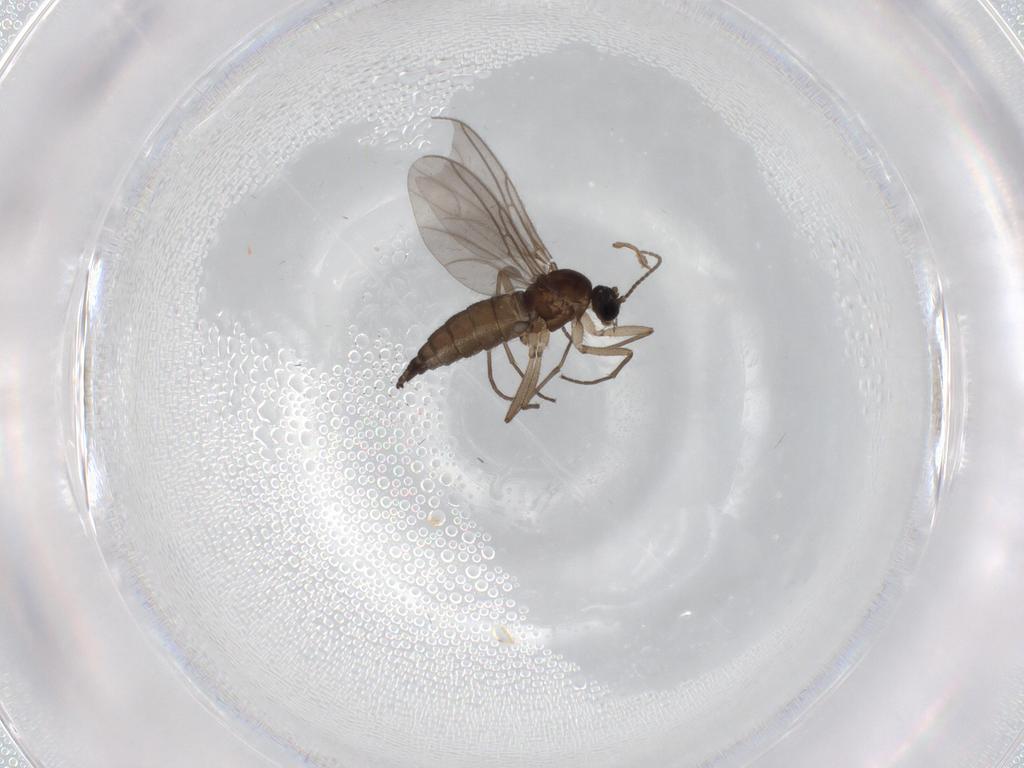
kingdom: Animalia
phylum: Arthropoda
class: Insecta
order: Diptera
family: Sciaridae
